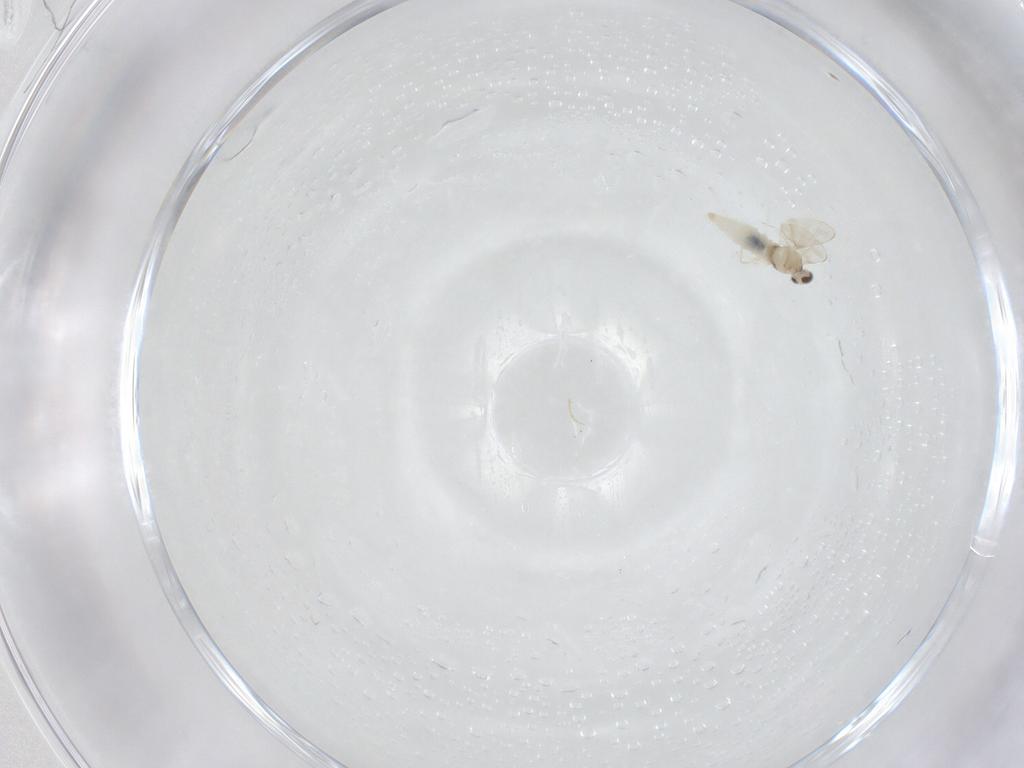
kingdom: Animalia
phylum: Arthropoda
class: Insecta
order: Diptera
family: Cecidomyiidae
